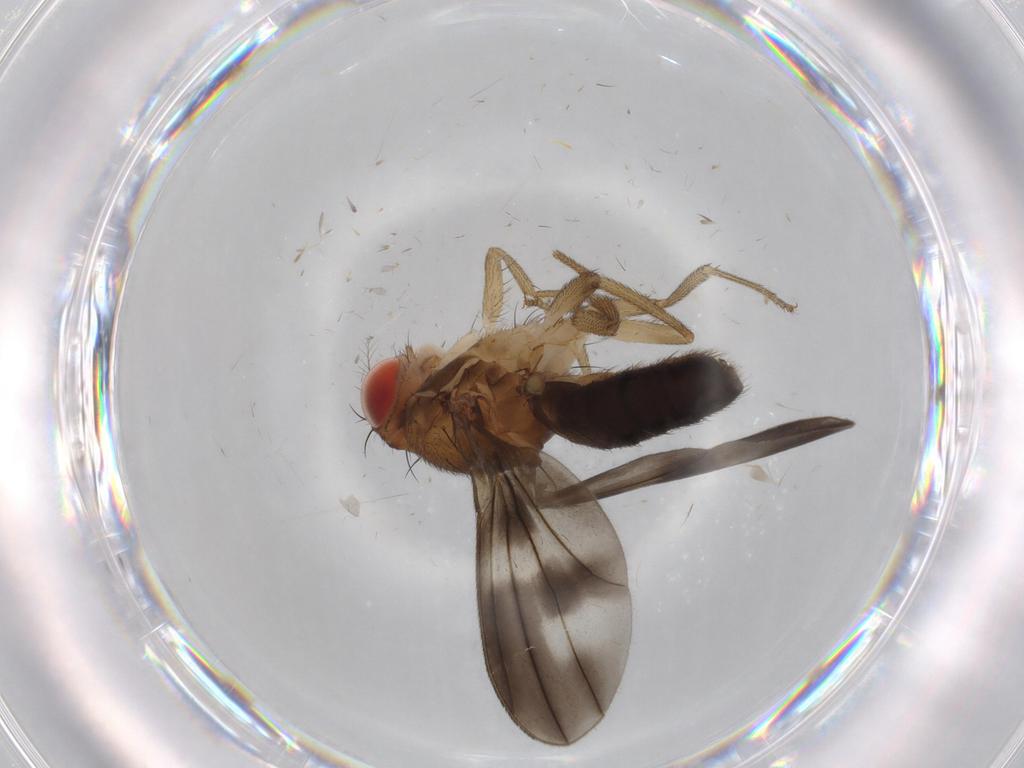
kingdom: Animalia
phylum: Arthropoda
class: Insecta
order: Diptera
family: Drosophilidae
